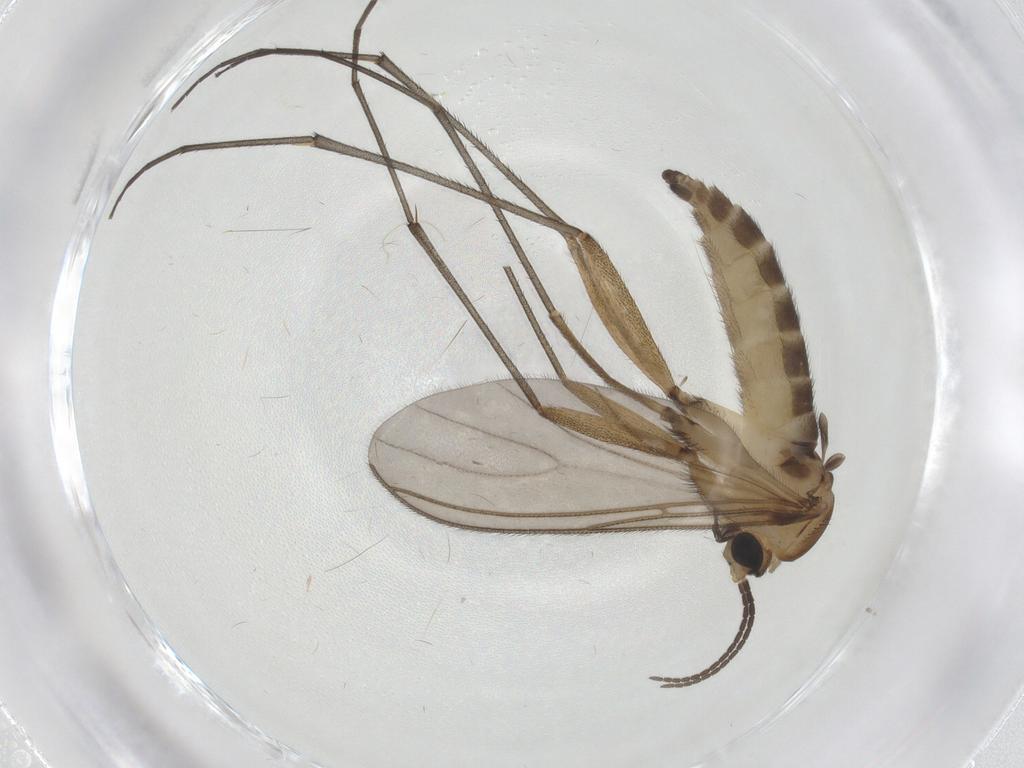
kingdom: Animalia
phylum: Arthropoda
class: Insecta
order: Diptera
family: Sciaridae
